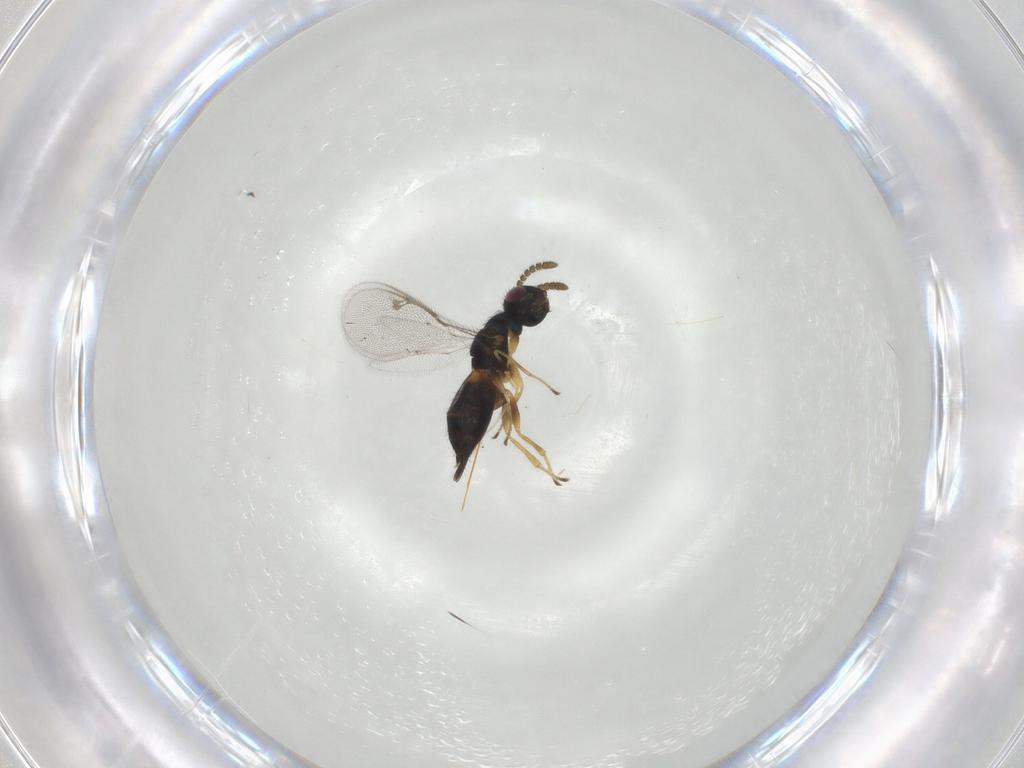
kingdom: Animalia
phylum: Arthropoda
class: Insecta
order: Hymenoptera
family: Pirenidae
